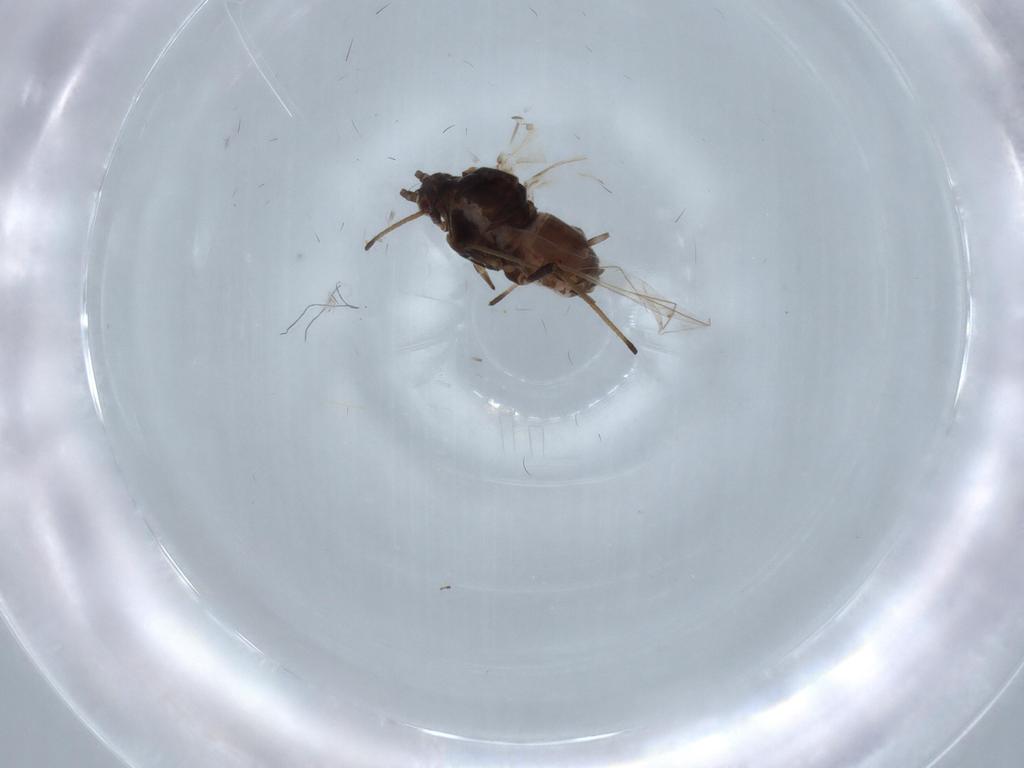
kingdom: Animalia
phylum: Arthropoda
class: Insecta
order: Hemiptera
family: Aphididae
